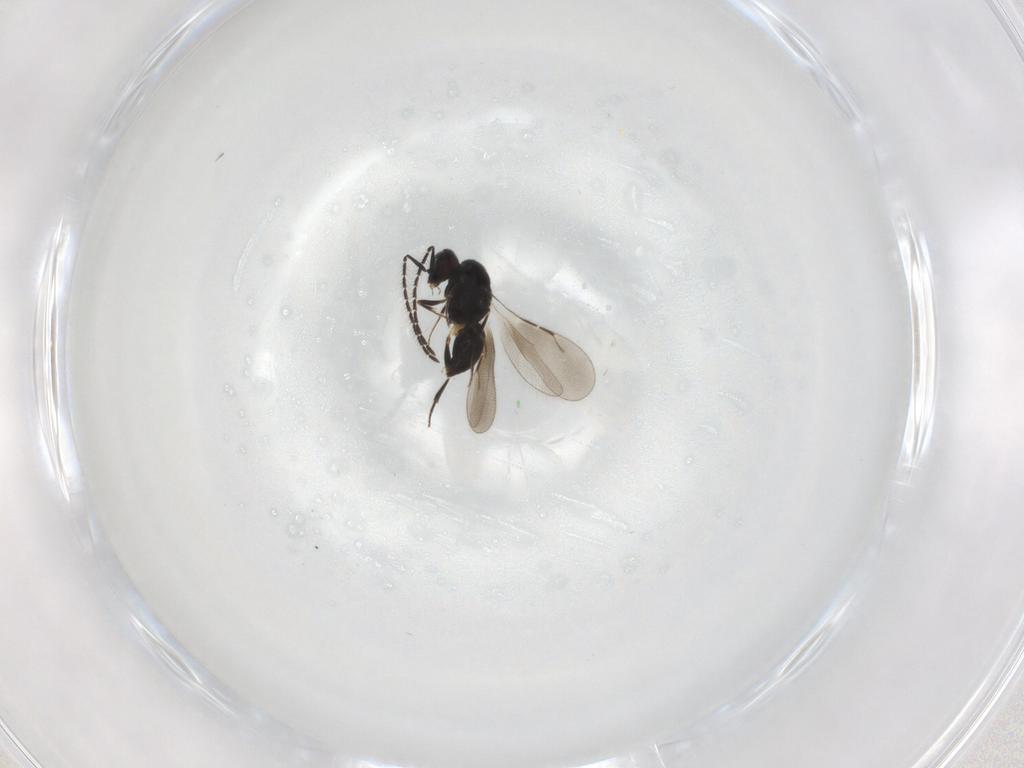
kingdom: Animalia
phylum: Arthropoda
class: Insecta
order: Hymenoptera
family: Ceraphronidae
